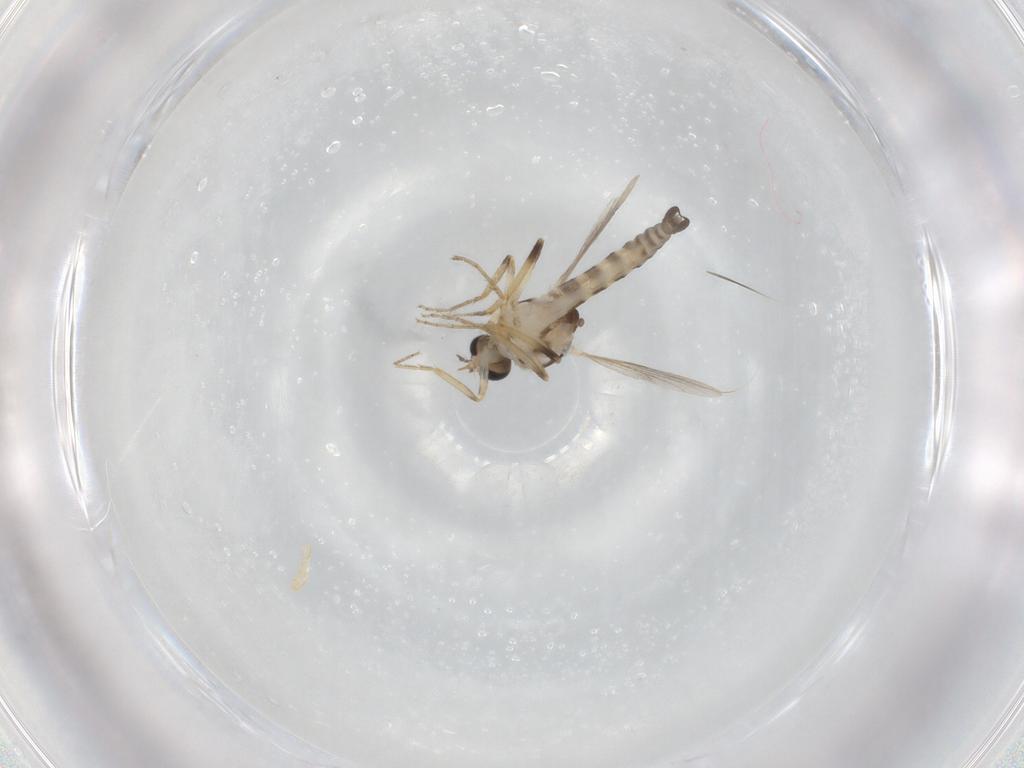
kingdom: Animalia
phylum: Arthropoda
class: Insecta
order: Diptera
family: Ceratopogonidae
